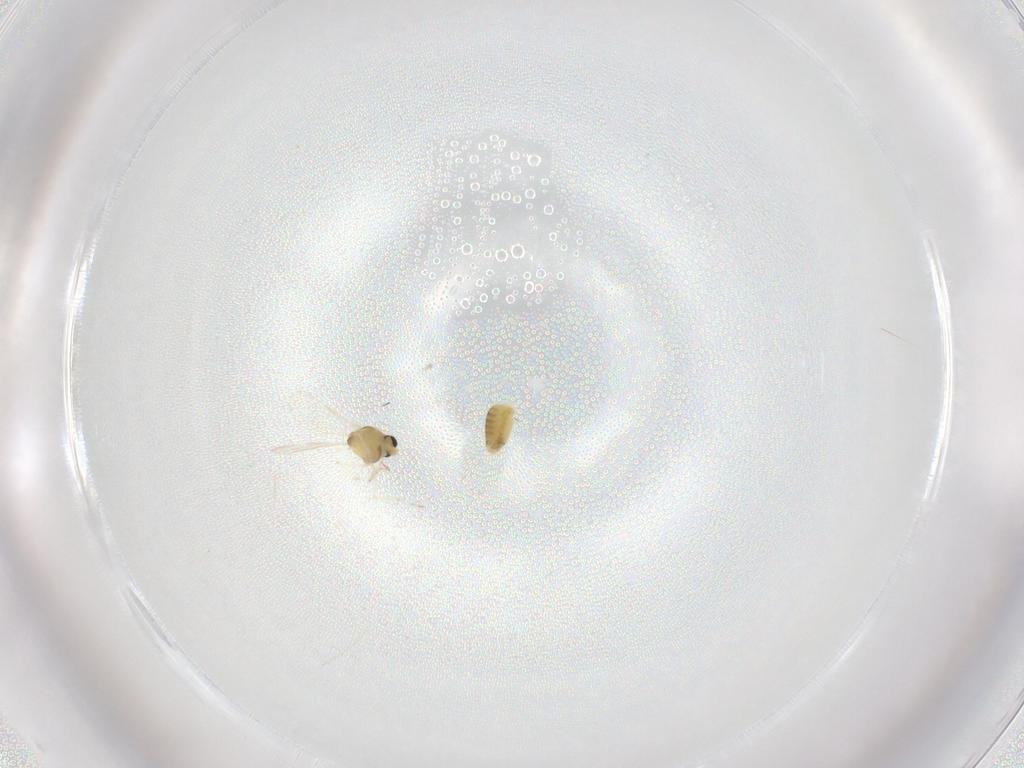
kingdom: Animalia
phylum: Arthropoda
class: Insecta
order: Diptera
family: Chironomidae
